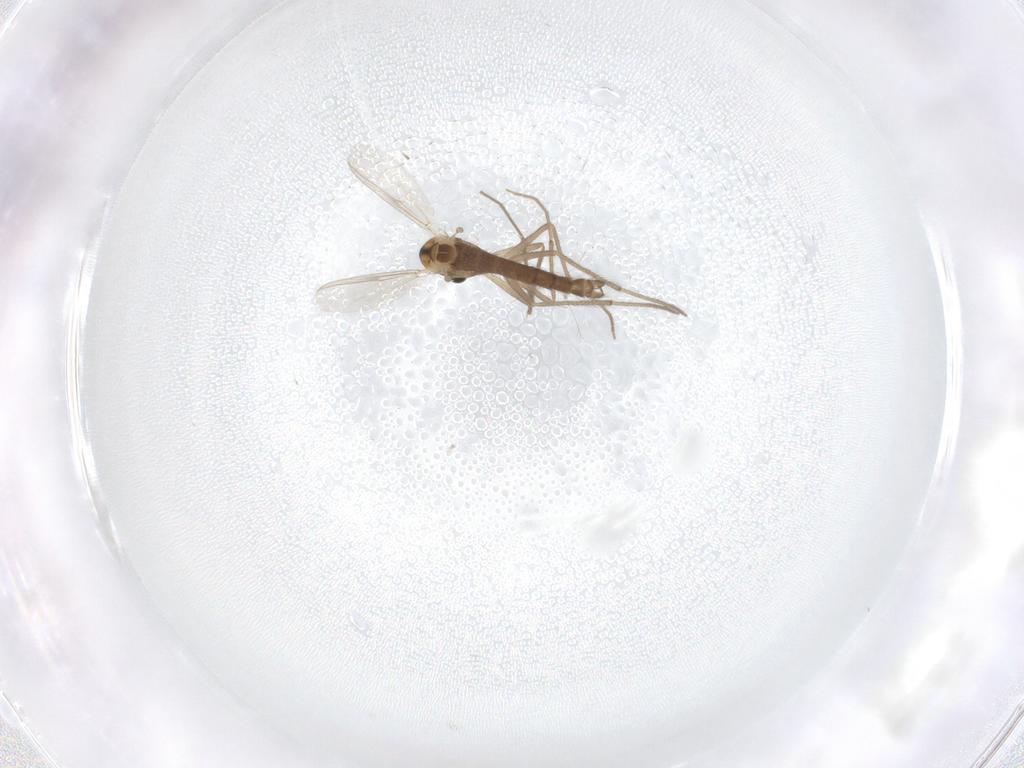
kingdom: Animalia
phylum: Arthropoda
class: Insecta
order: Diptera
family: Chironomidae
